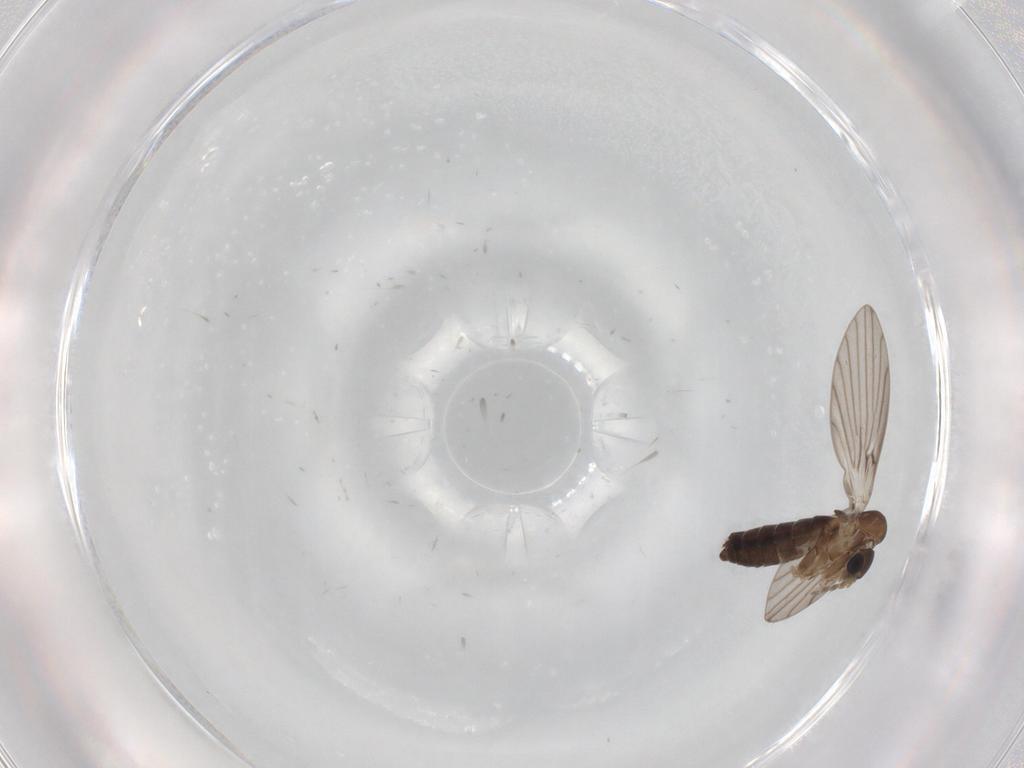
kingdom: Animalia
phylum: Arthropoda
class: Insecta
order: Diptera
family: Cecidomyiidae
